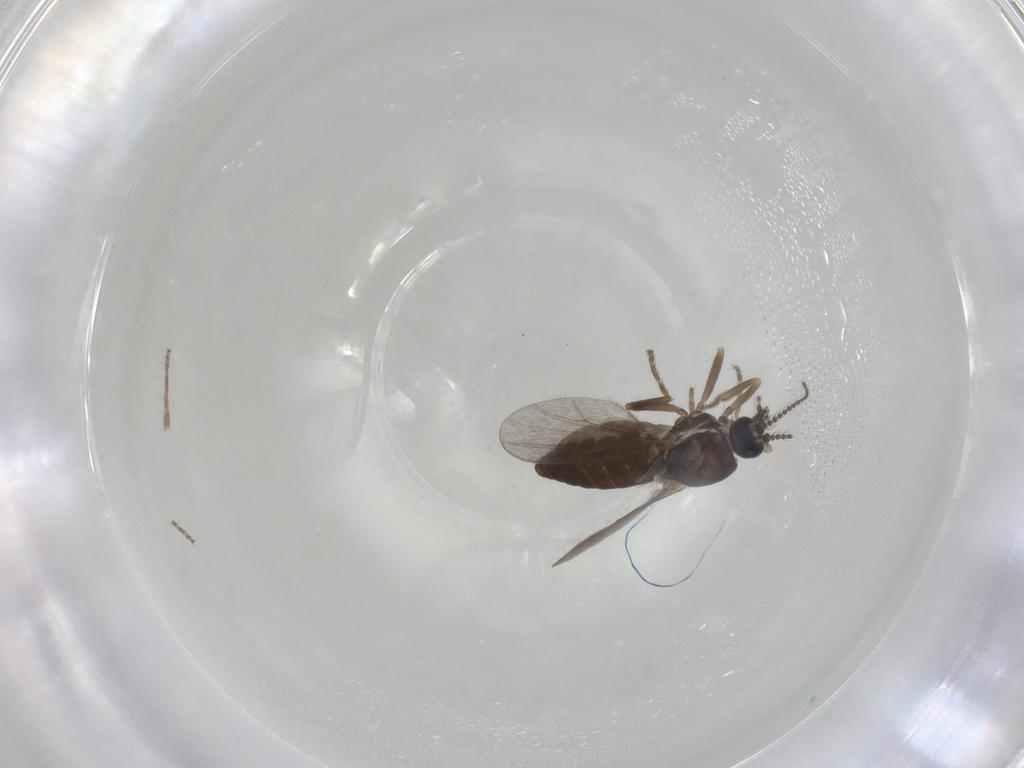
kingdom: Animalia
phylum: Arthropoda
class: Insecta
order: Diptera
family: Ceratopogonidae
